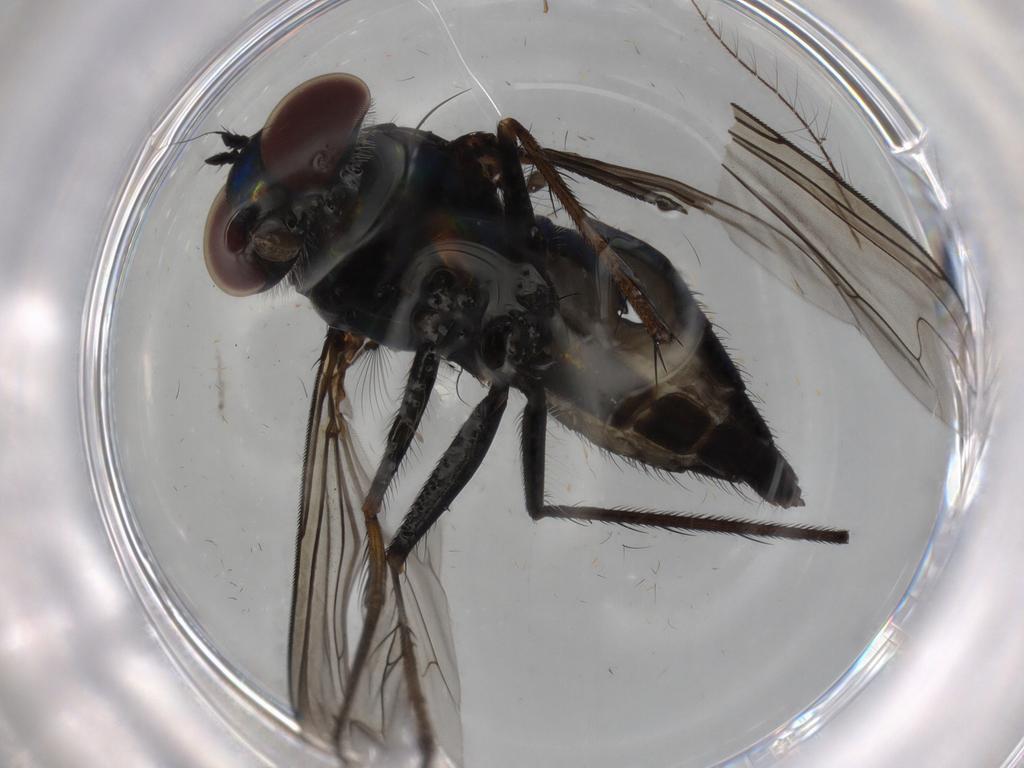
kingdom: Animalia
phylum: Arthropoda
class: Insecta
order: Diptera
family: Dolichopodidae
